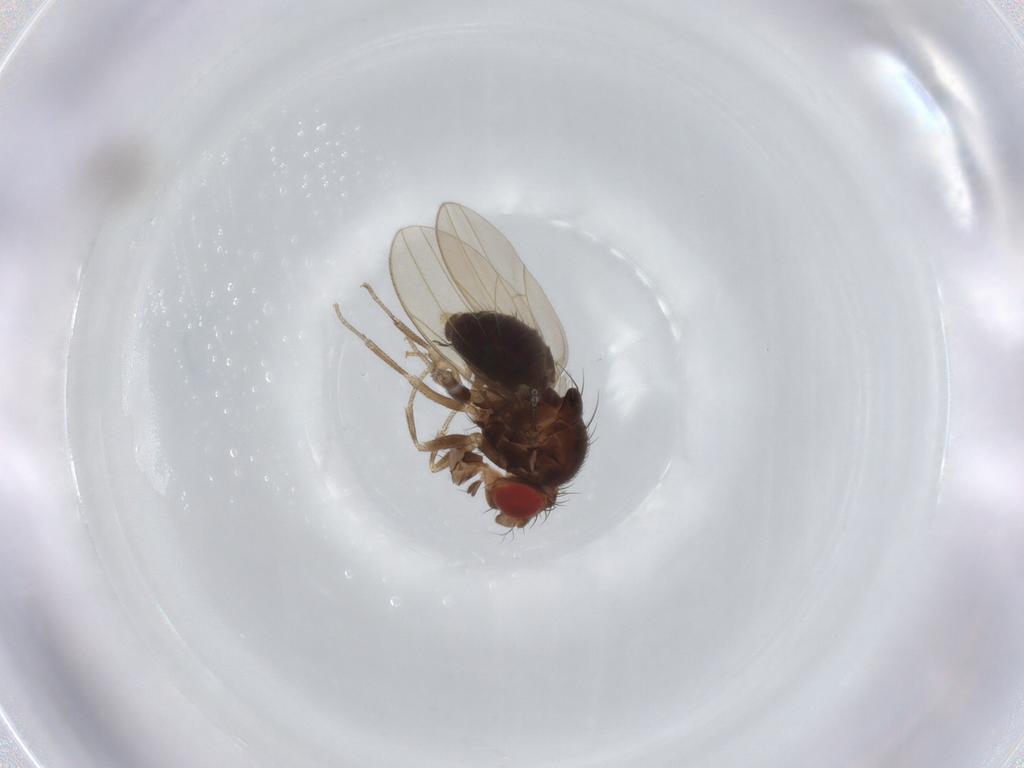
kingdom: Animalia
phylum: Arthropoda
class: Insecta
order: Diptera
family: Cecidomyiidae
